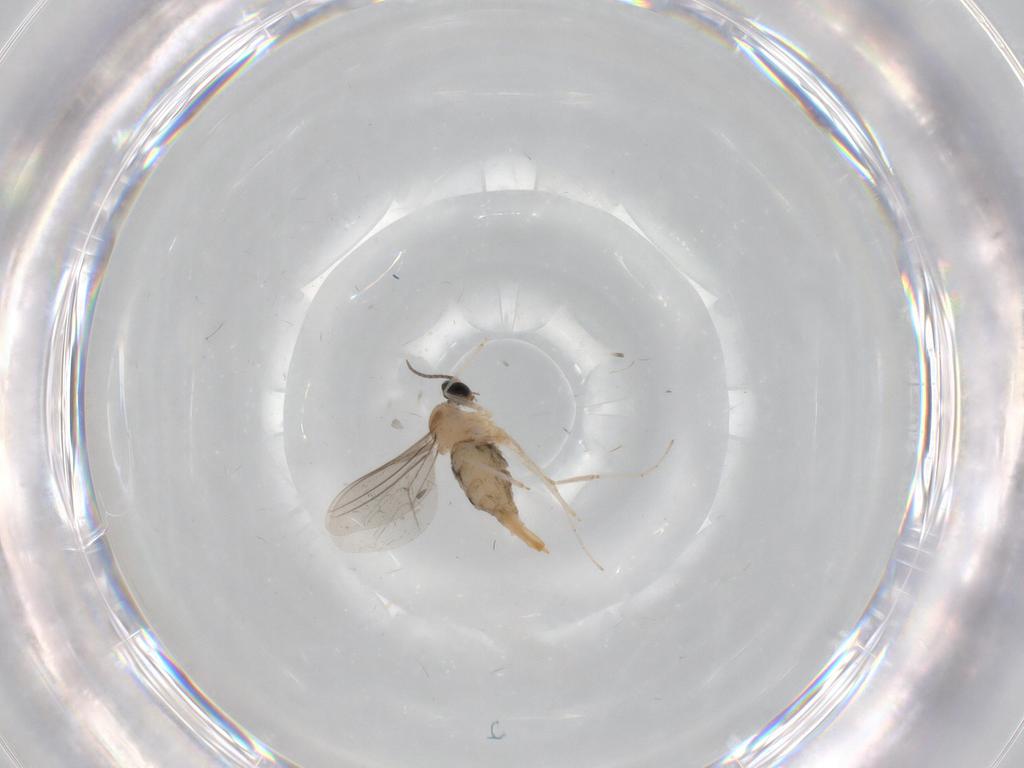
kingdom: Animalia
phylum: Arthropoda
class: Insecta
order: Diptera
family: Cecidomyiidae
